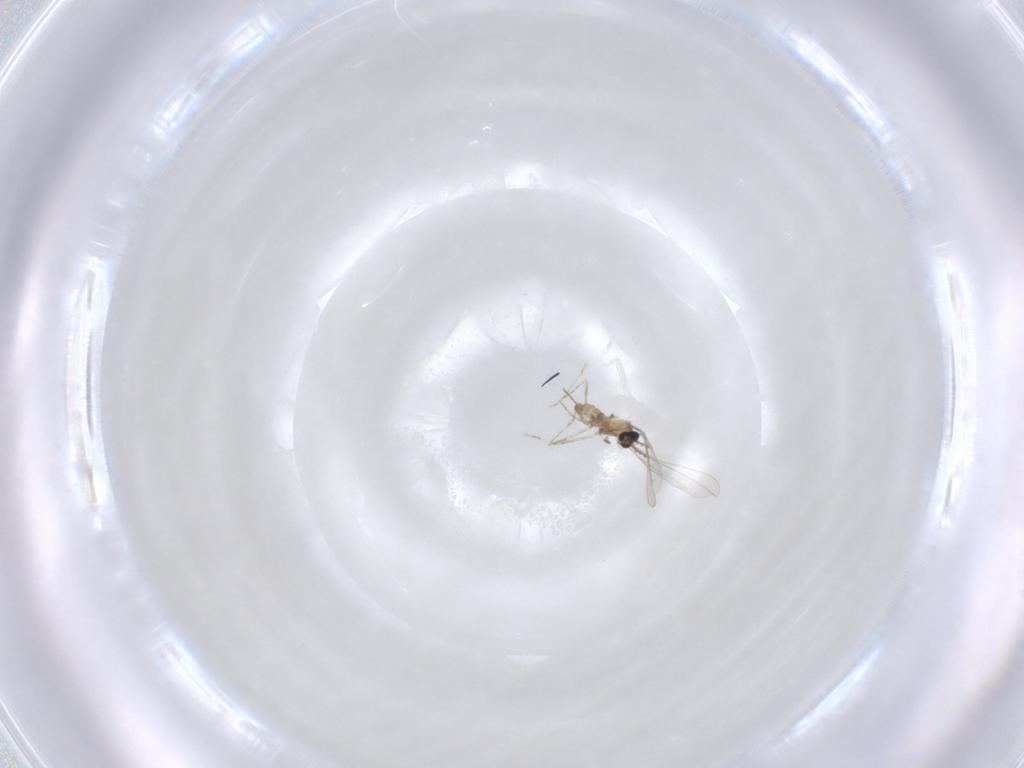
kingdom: Animalia
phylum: Arthropoda
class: Insecta
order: Diptera
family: Cecidomyiidae
